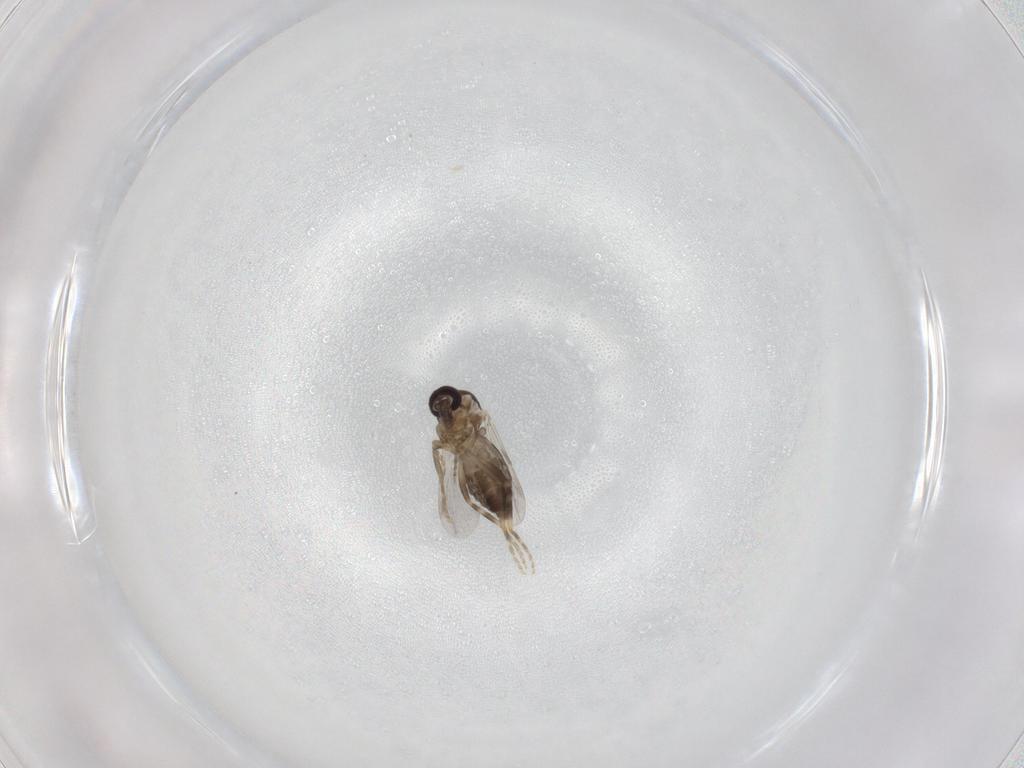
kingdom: Animalia
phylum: Arthropoda
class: Insecta
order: Diptera
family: Ceratopogonidae
